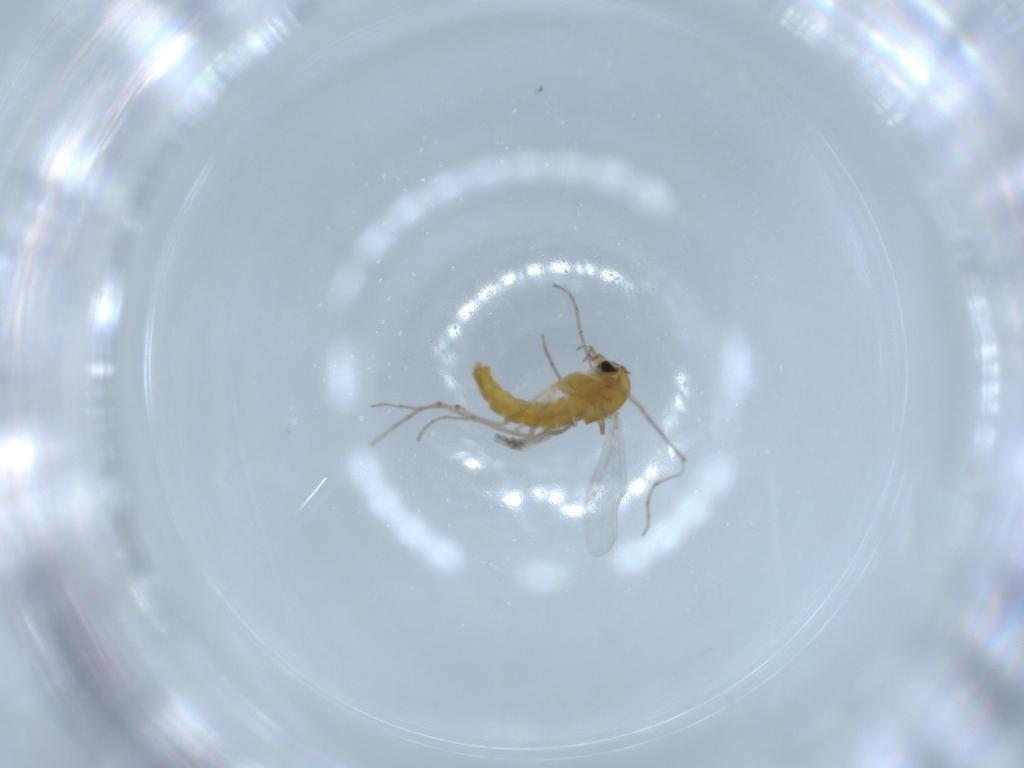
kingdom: Animalia
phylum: Arthropoda
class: Insecta
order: Diptera
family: Chironomidae
